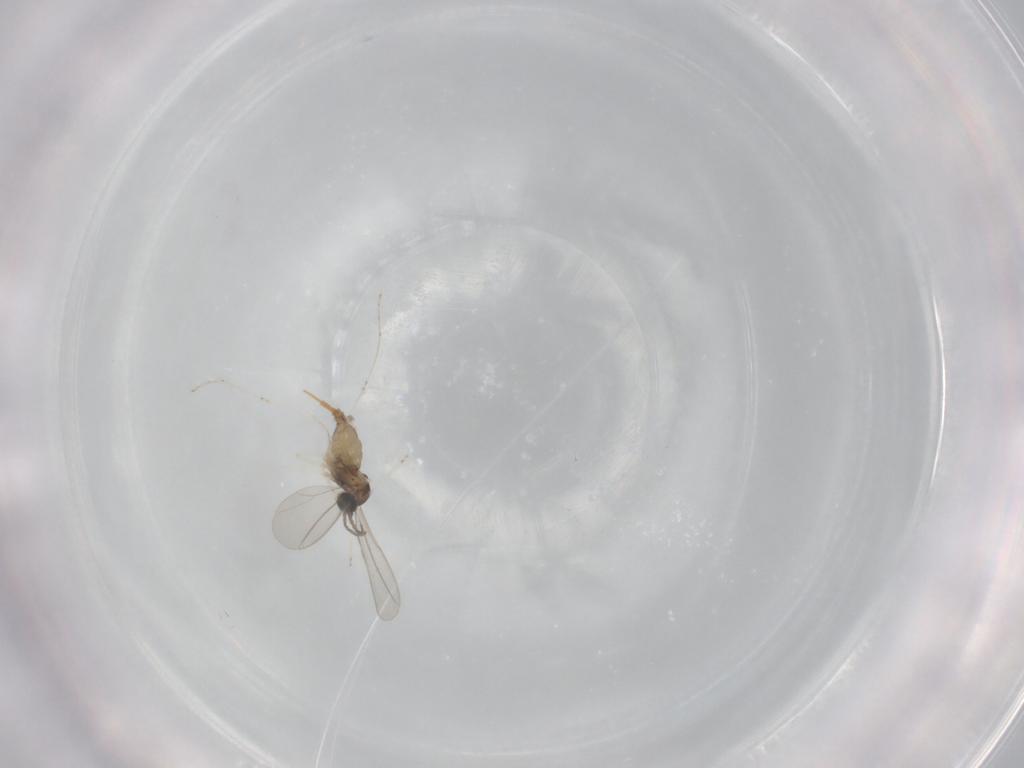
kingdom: Animalia
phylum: Arthropoda
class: Insecta
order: Diptera
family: Cecidomyiidae
